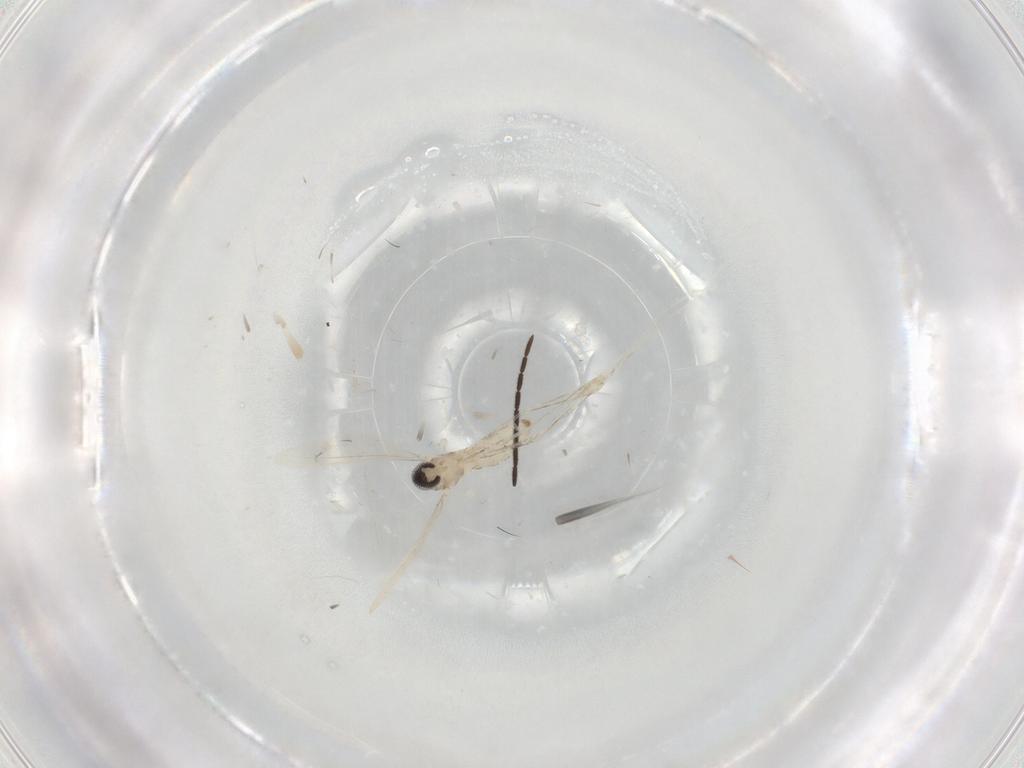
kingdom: Animalia
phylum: Arthropoda
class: Insecta
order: Diptera
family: Cecidomyiidae
